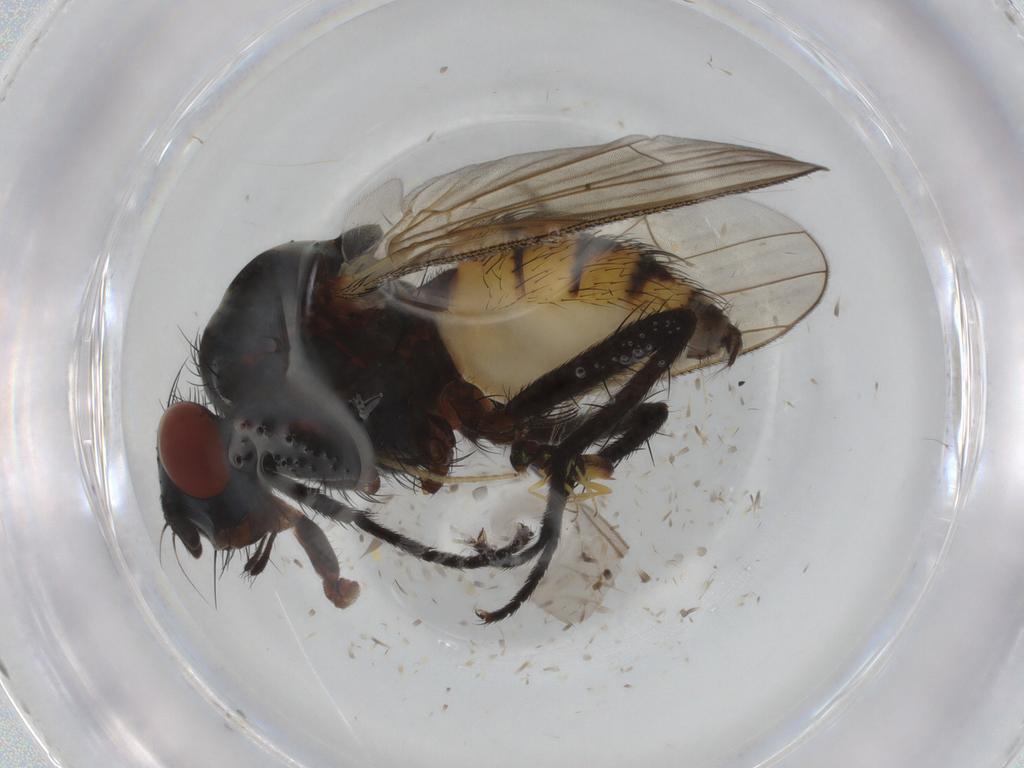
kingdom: Animalia
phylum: Arthropoda
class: Insecta
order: Diptera
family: Anthomyiidae
